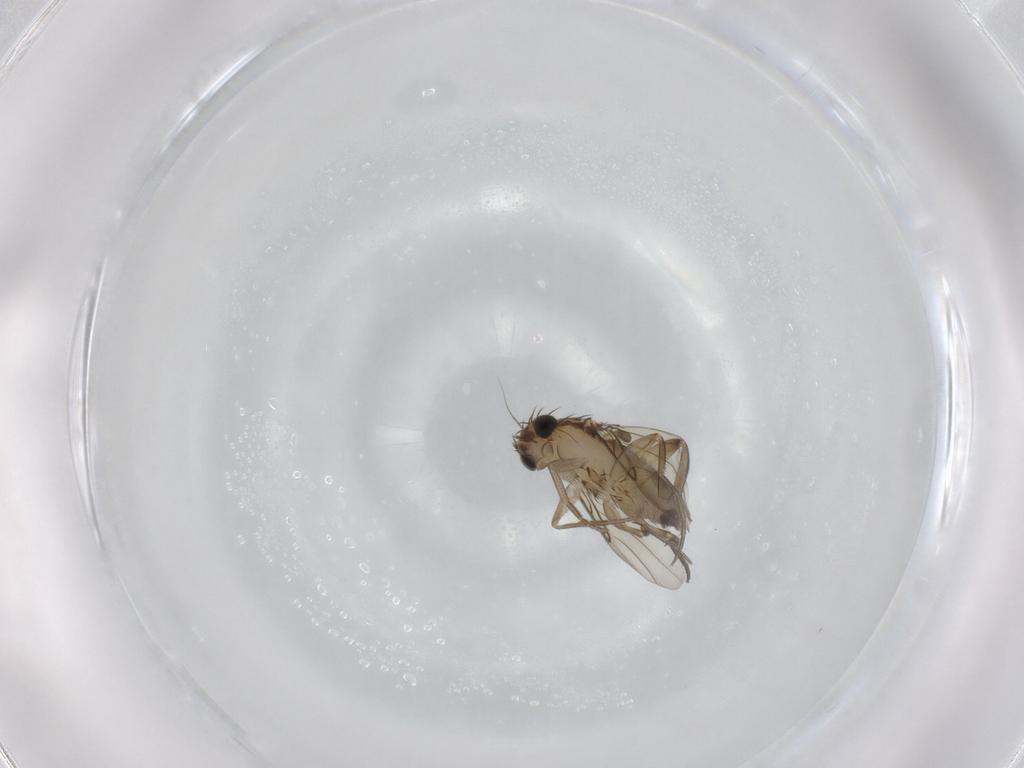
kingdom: Animalia
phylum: Arthropoda
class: Insecta
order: Diptera
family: Phoridae
